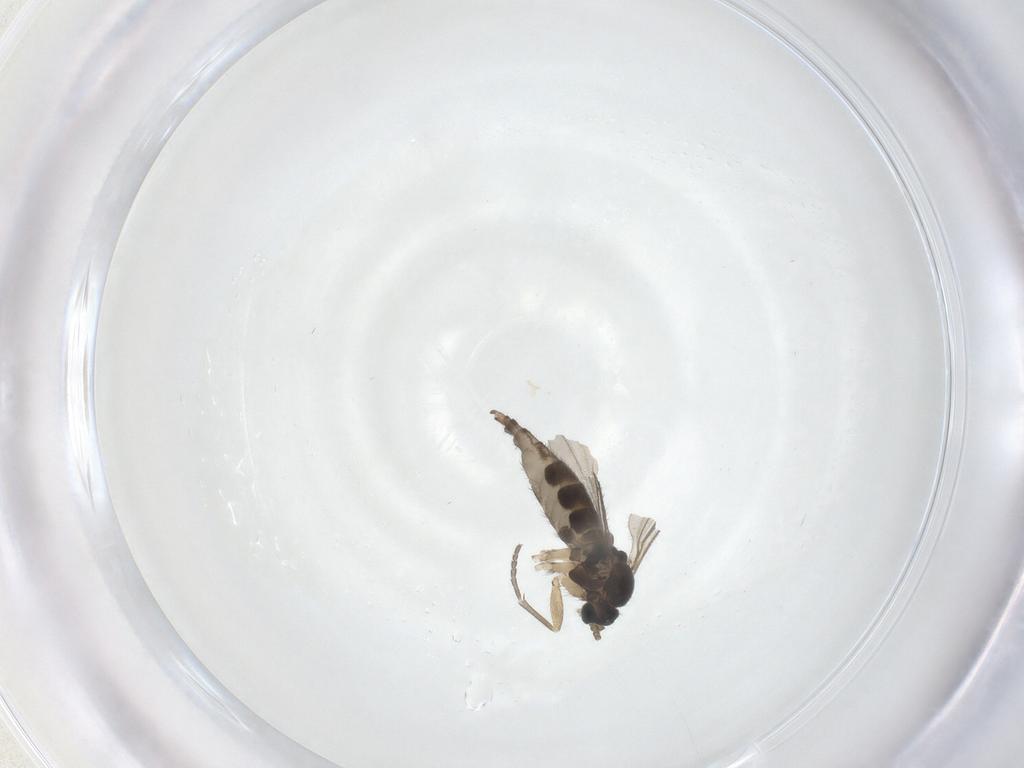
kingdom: Animalia
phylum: Arthropoda
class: Insecta
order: Diptera
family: Sciaridae
